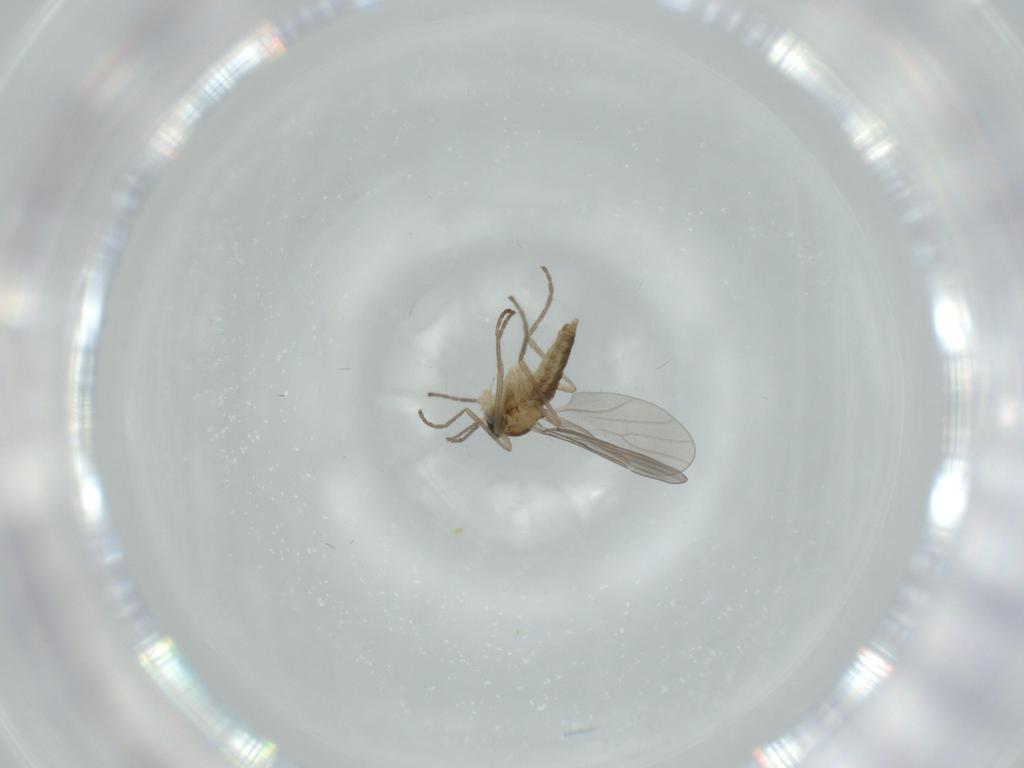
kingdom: Animalia
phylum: Arthropoda
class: Insecta
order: Diptera
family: Cecidomyiidae
